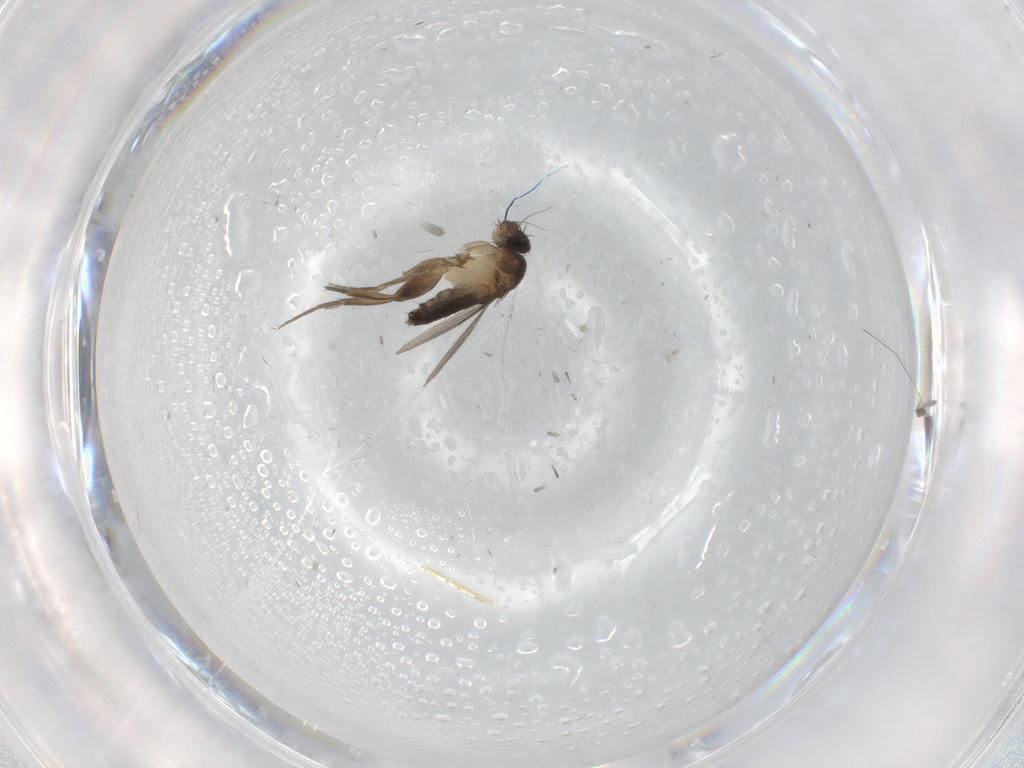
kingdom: Animalia
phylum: Arthropoda
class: Insecta
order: Diptera
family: Phoridae
